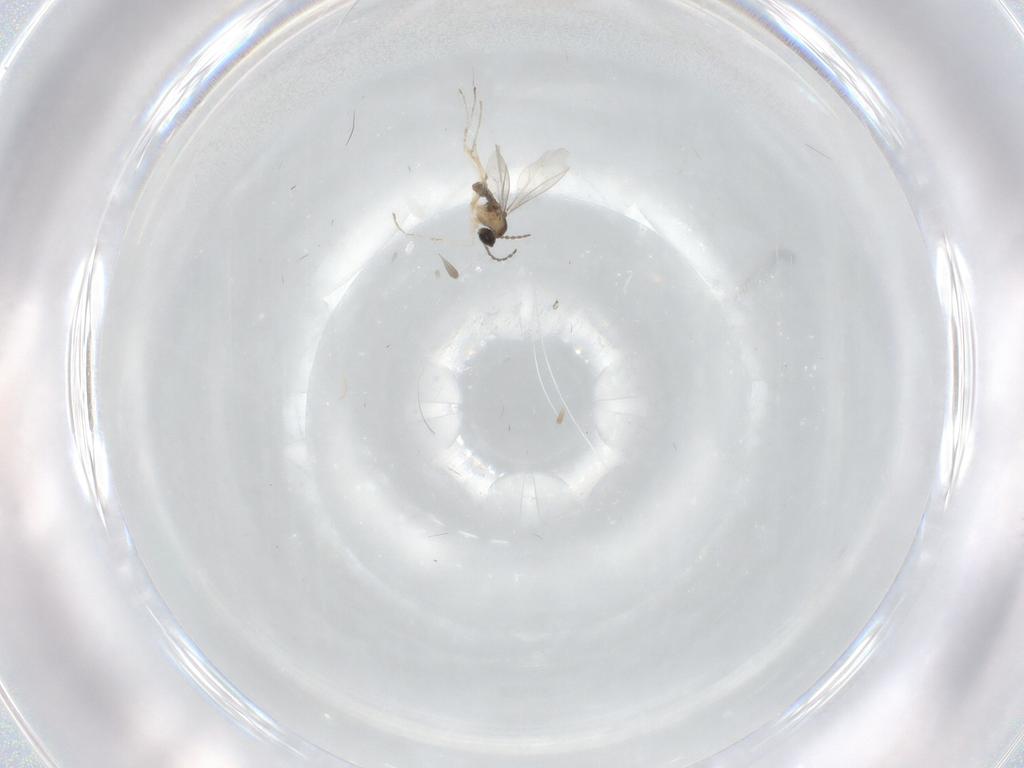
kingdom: Animalia
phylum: Arthropoda
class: Insecta
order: Diptera
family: Cecidomyiidae
